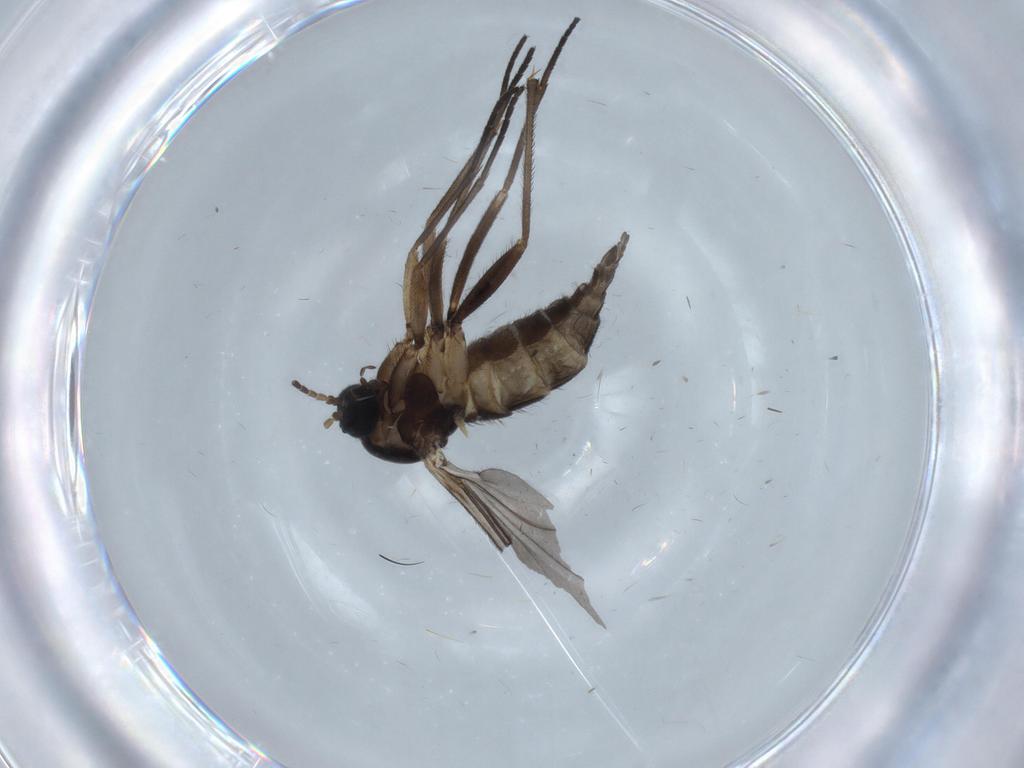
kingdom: Animalia
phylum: Arthropoda
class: Insecta
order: Diptera
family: Sciaridae
